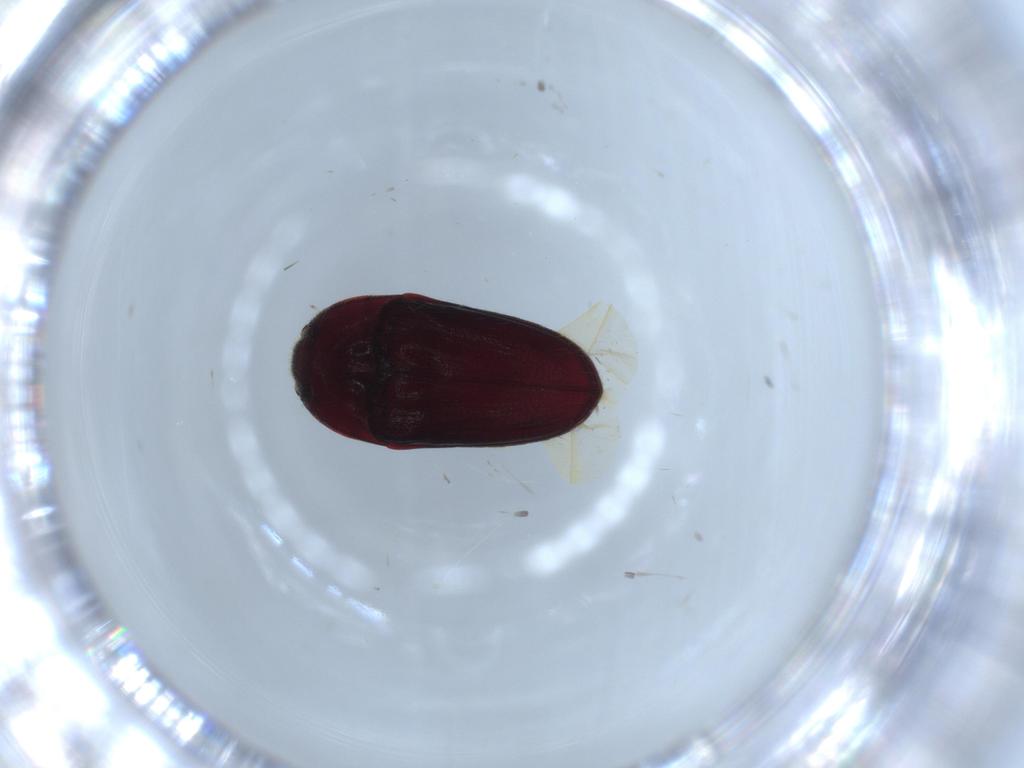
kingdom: Animalia
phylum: Arthropoda
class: Insecta
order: Coleoptera
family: Throscidae
